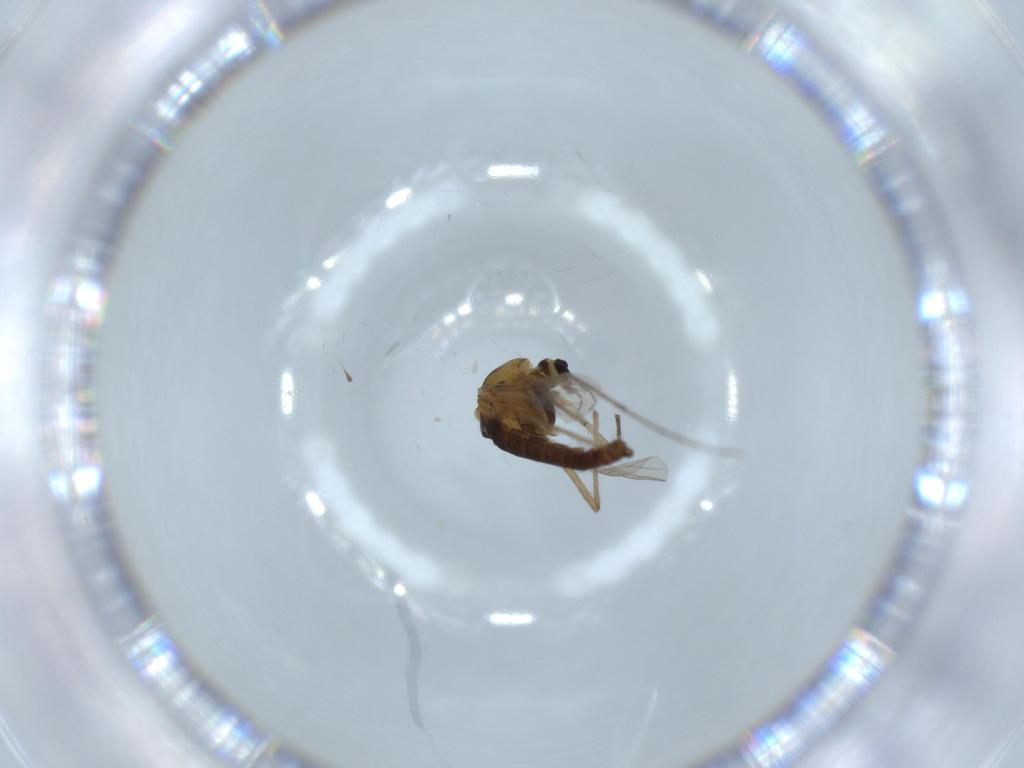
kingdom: Animalia
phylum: Arthropoda
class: Insecta
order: Diptera
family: Chironomidae
